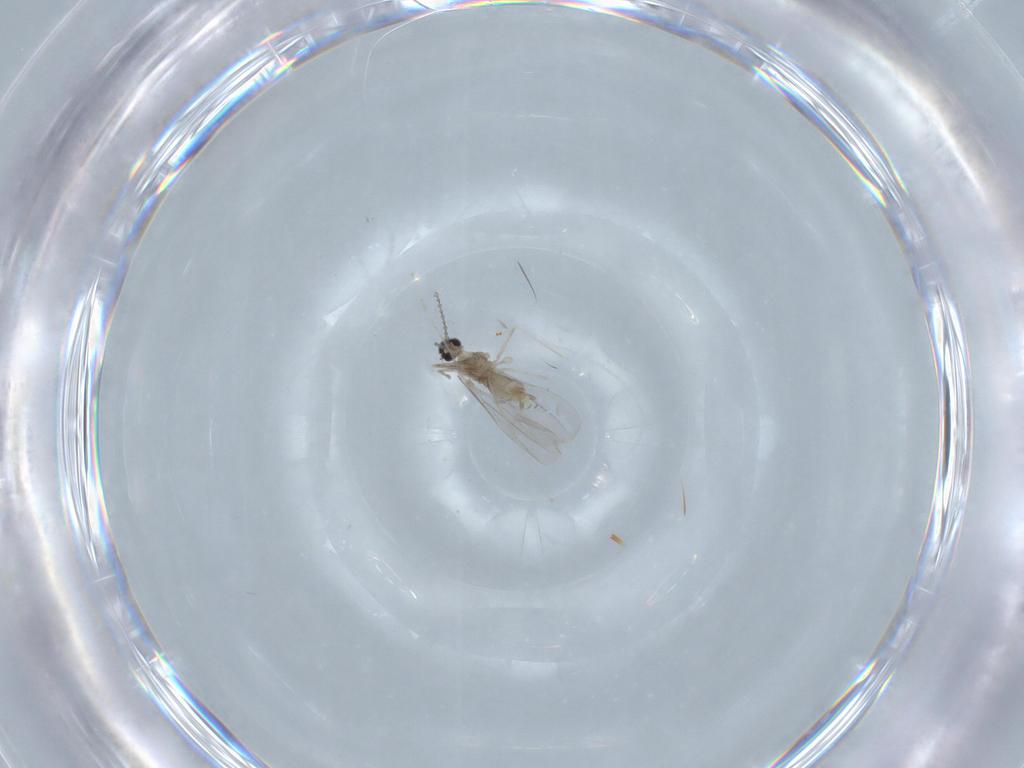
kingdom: Animalia
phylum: Arthropoda
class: Insecta
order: Diptera
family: Cecidomyiidae
